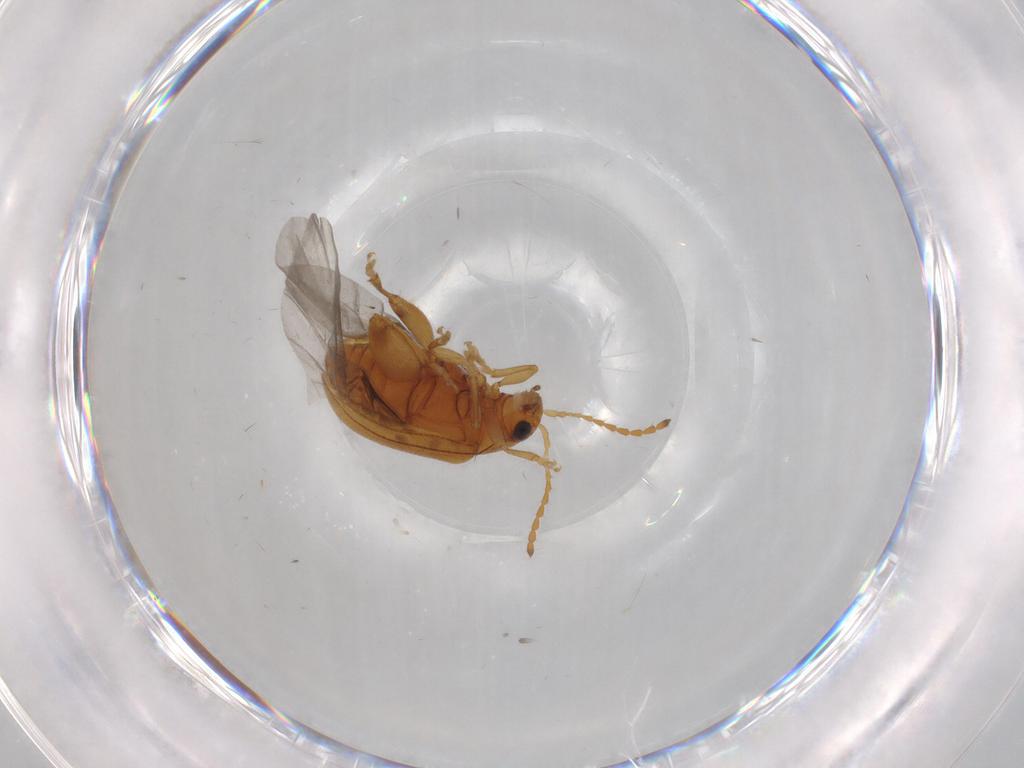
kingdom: Animalia
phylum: Arthropoda
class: Insecta
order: Coleoptera
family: Chrysomelidae
